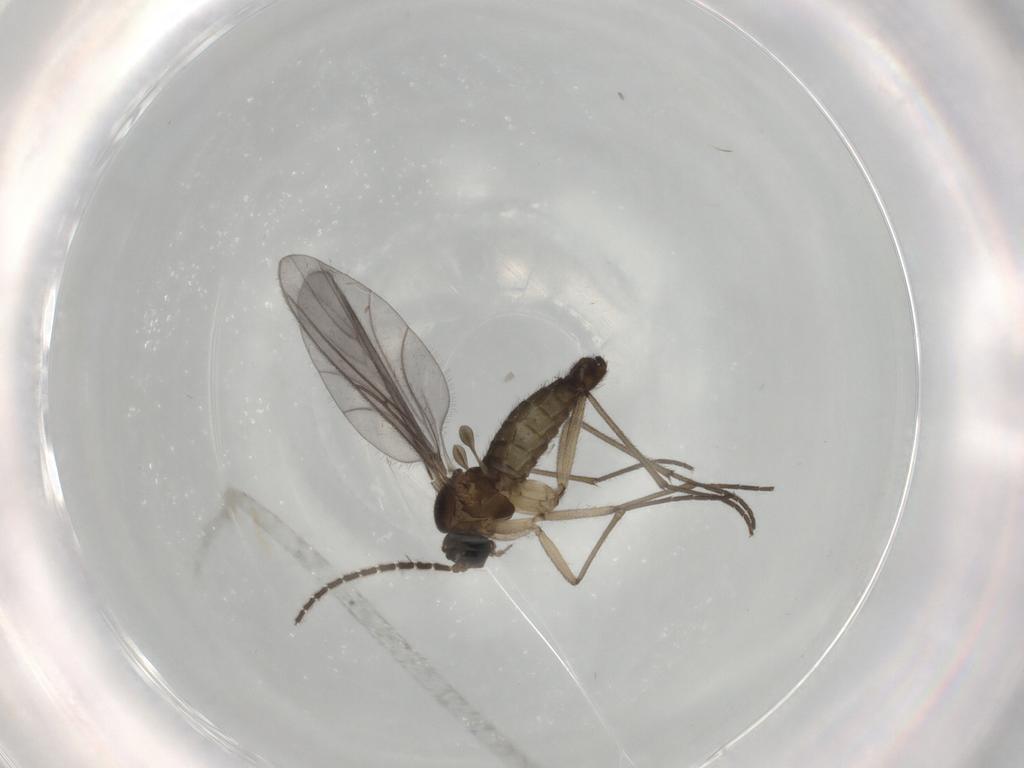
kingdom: Animalia
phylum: Arthropoda
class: Insecta
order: Diptera
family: Sciaridae
